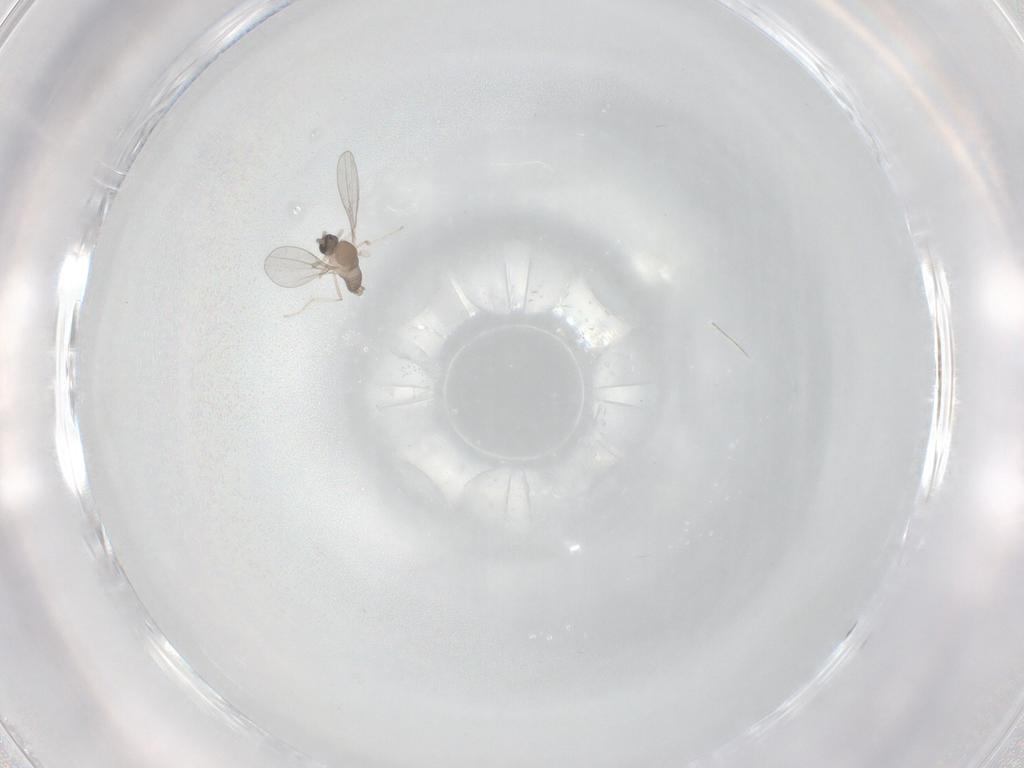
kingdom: Animalia
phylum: Arthropoda
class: Insecta
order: Diptera
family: Cecidomyiidae
